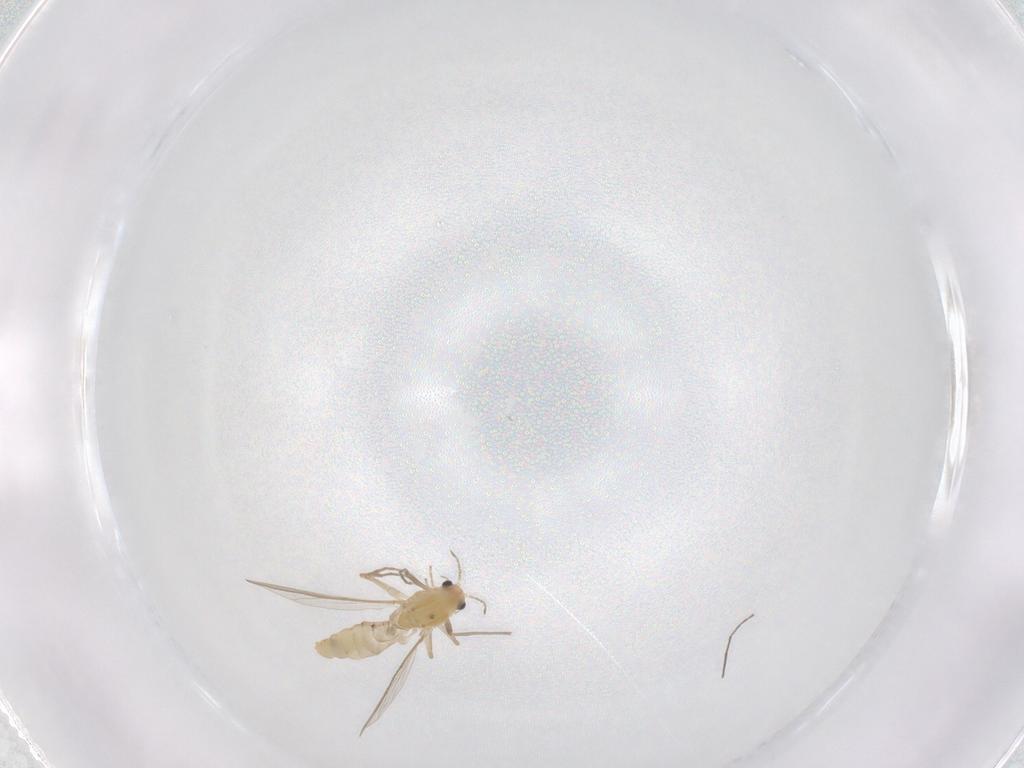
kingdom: Animalia
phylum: Arthropoda
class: Insecta
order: Diptera
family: Chironomidae
